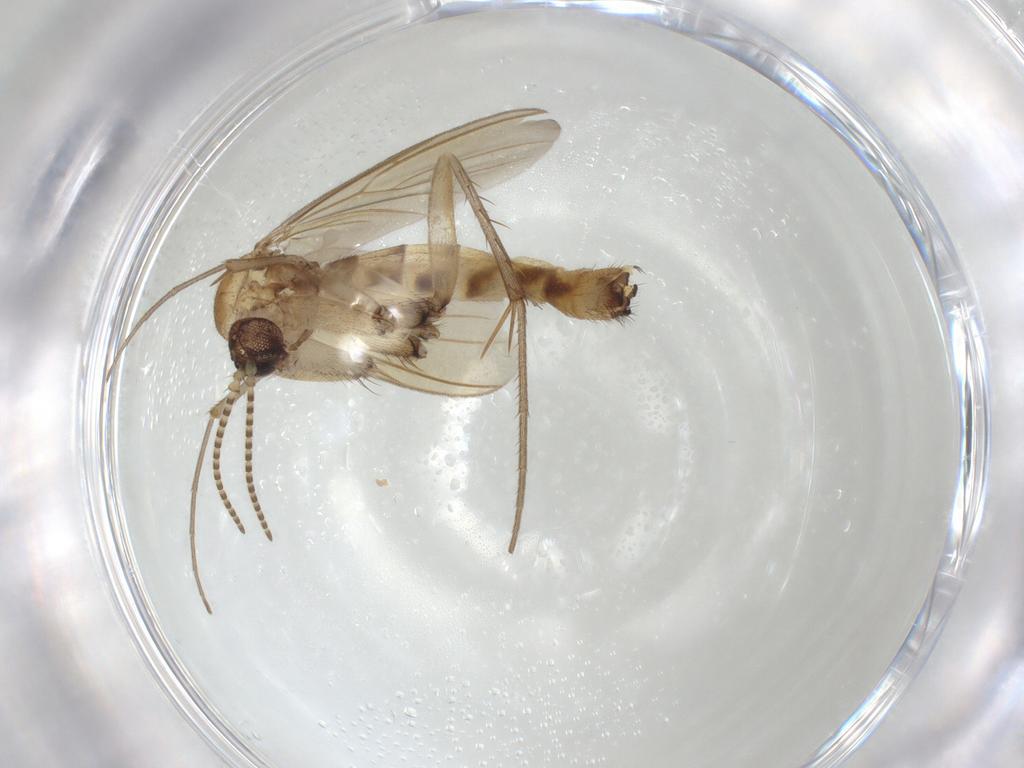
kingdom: Animalia
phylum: Arthropoda
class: Insecta
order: Diptera
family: Mycetophilidae
